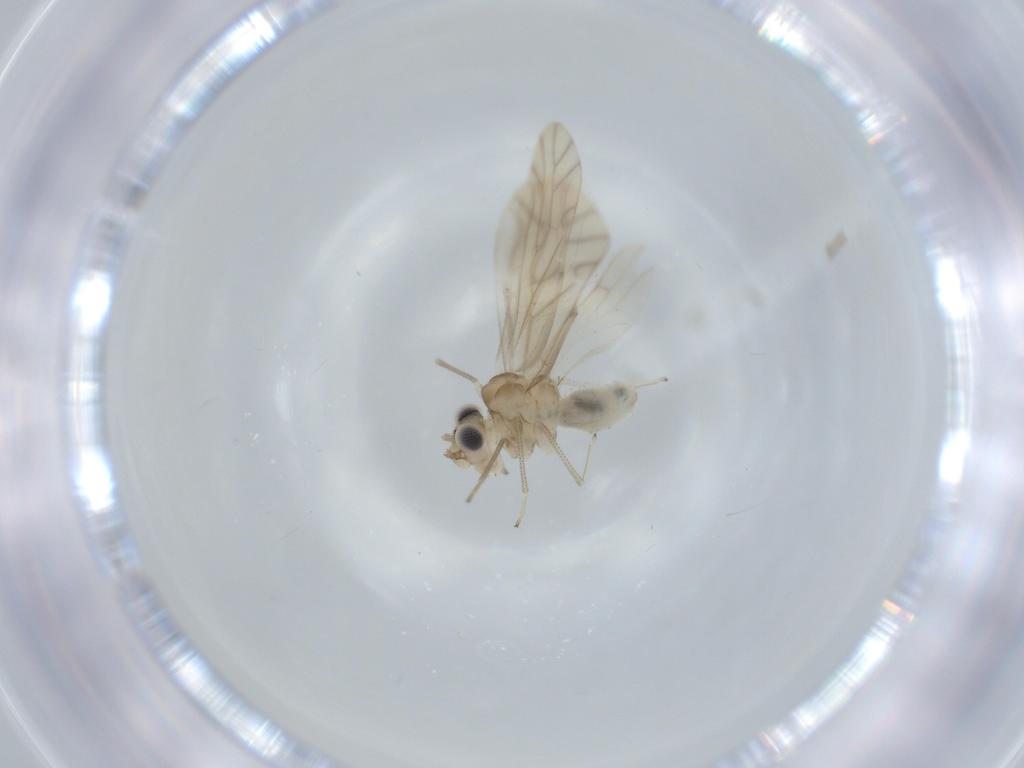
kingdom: Animalia
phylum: Arthropoda
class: Insecta
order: Psocodea
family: Caeciliusidae
